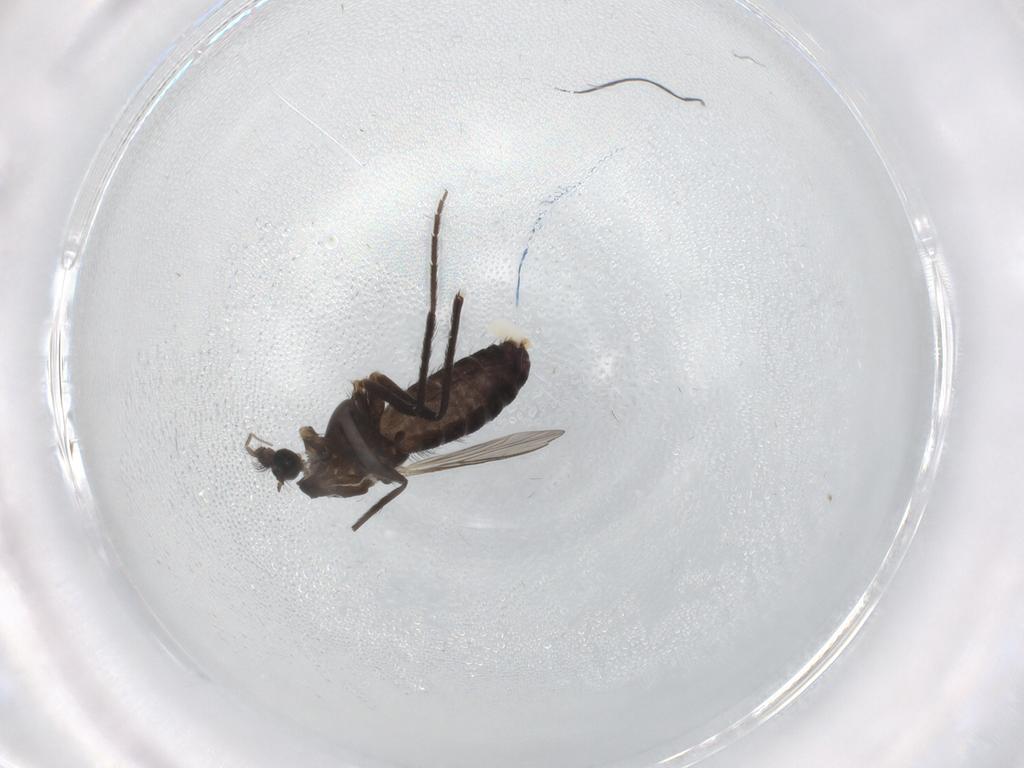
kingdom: Animalia
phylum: Arthropoda
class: Insecta
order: Diptera
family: Chironomidae
